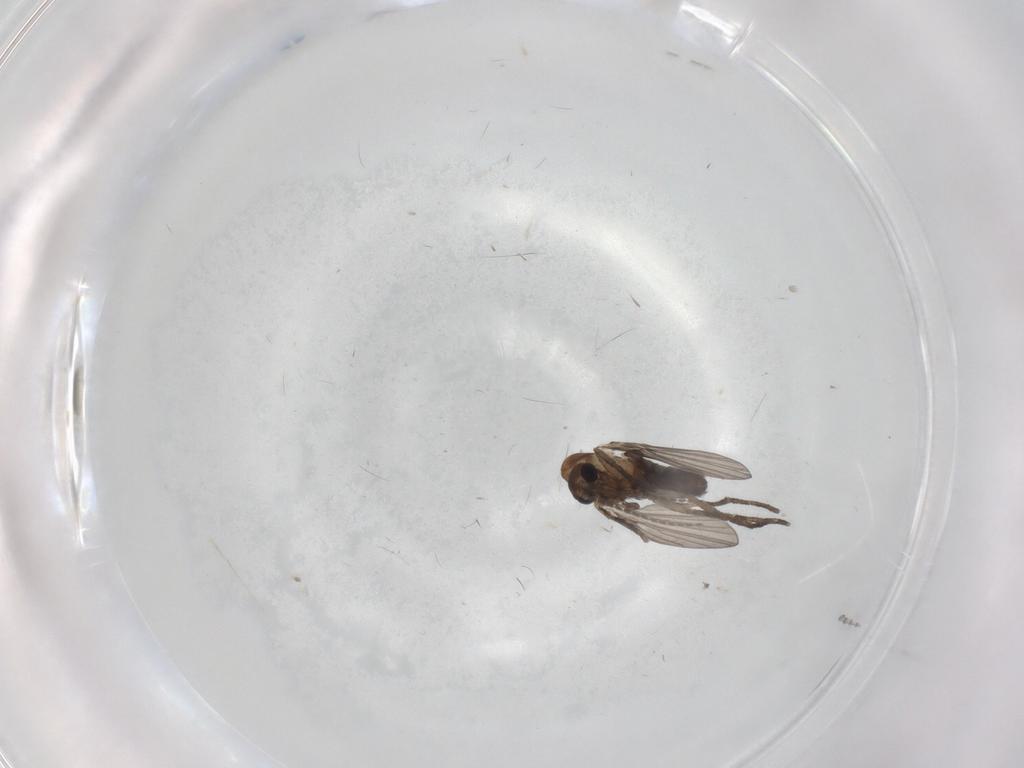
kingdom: Animalia
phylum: Arthropoda
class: Insecta
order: Diptera
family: Psychodidae
